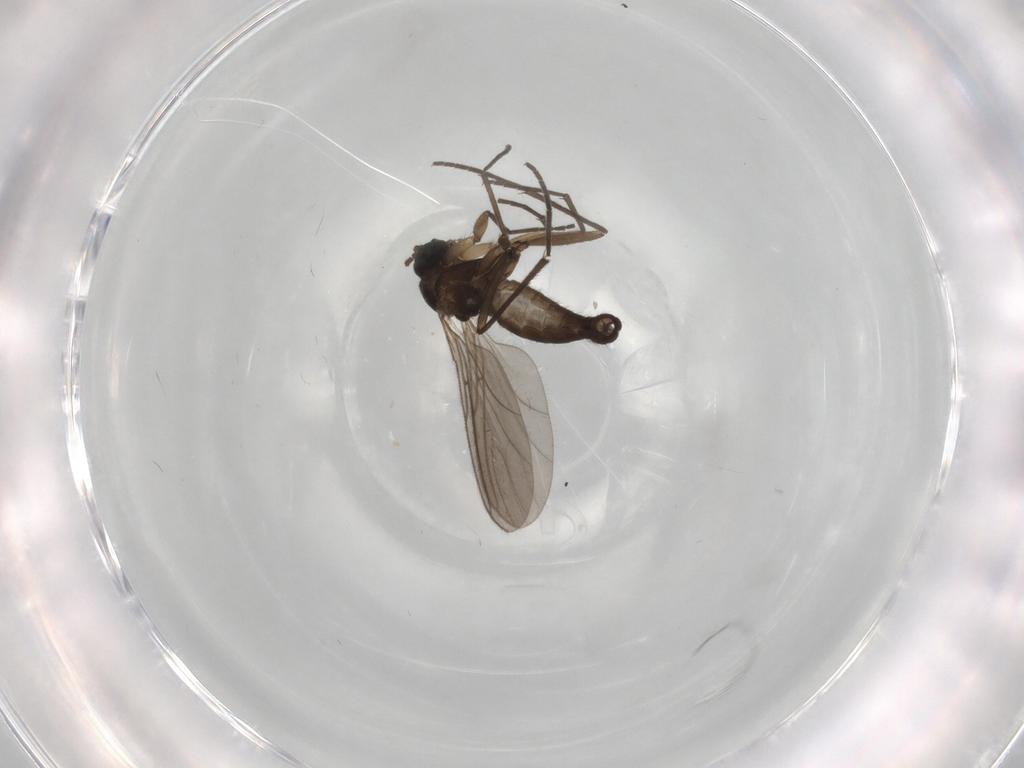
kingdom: Animalia
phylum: Arthropoda
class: Insecta
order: Diptera
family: Sciaridae
